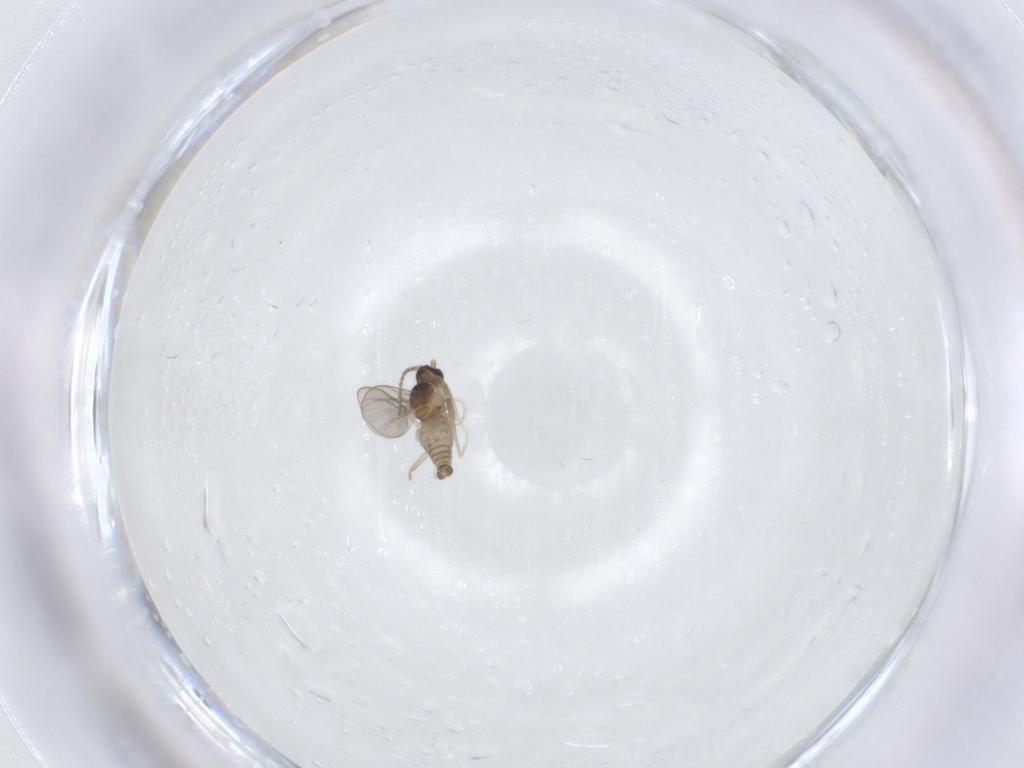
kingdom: Animalia
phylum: Arthropoda
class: Insecta
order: Diptera
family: Cecidomyiidae
